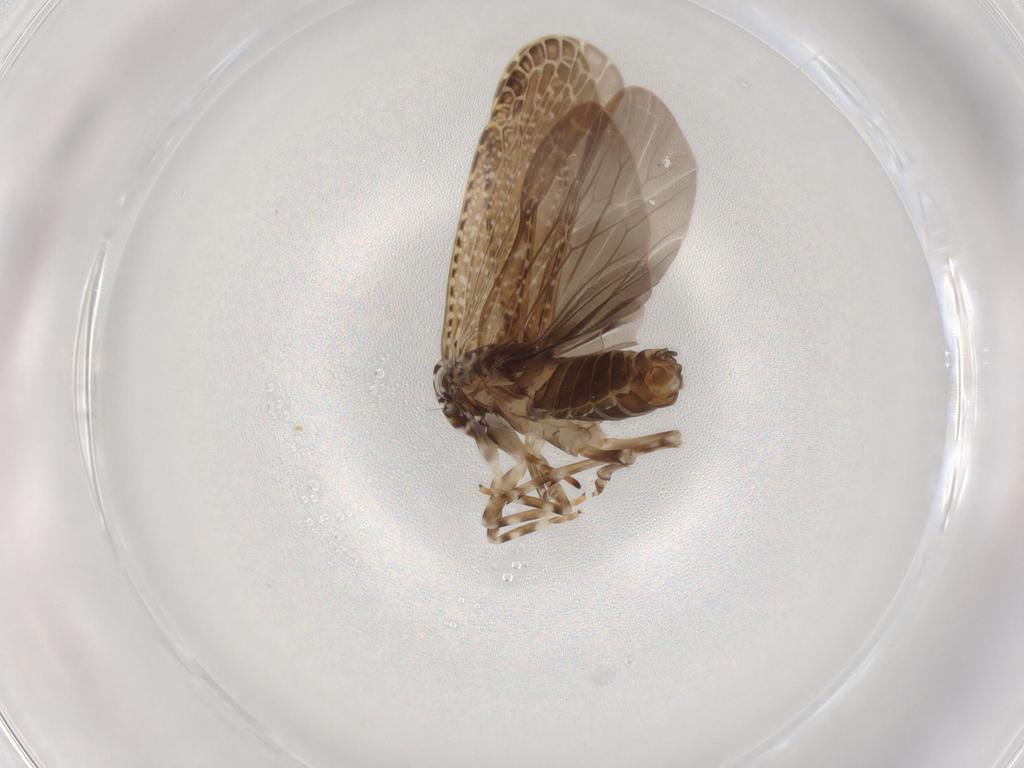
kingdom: Animalia
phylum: Arthropoda
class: Insecta
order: Hemiptera
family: Achilidae
